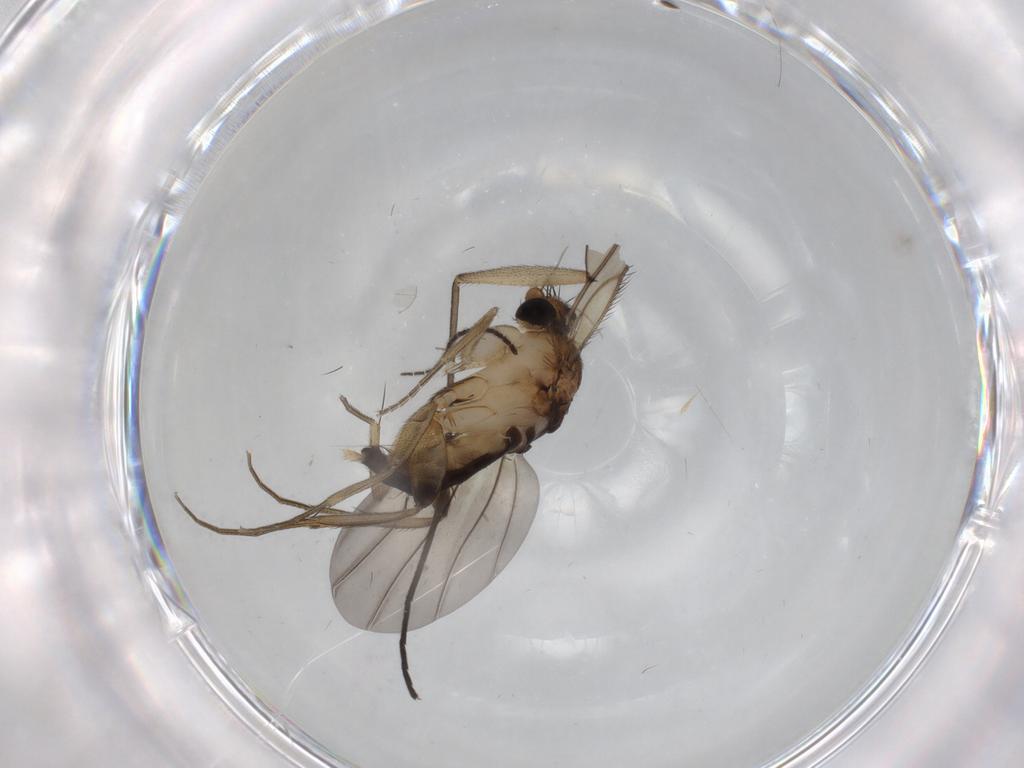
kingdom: Animalia
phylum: Arthropoda
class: Insecta
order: Diptera
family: Phoridae
